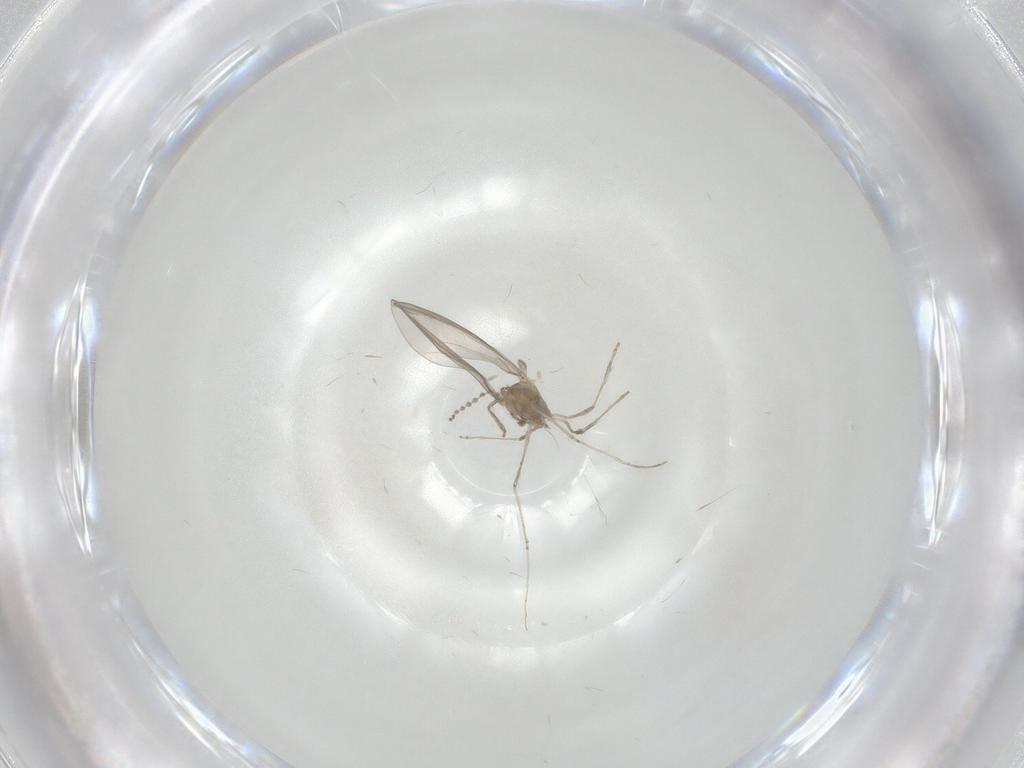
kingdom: Animalia
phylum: Arthropoda
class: Insecta
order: Diptera
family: Cecidomyiidae
